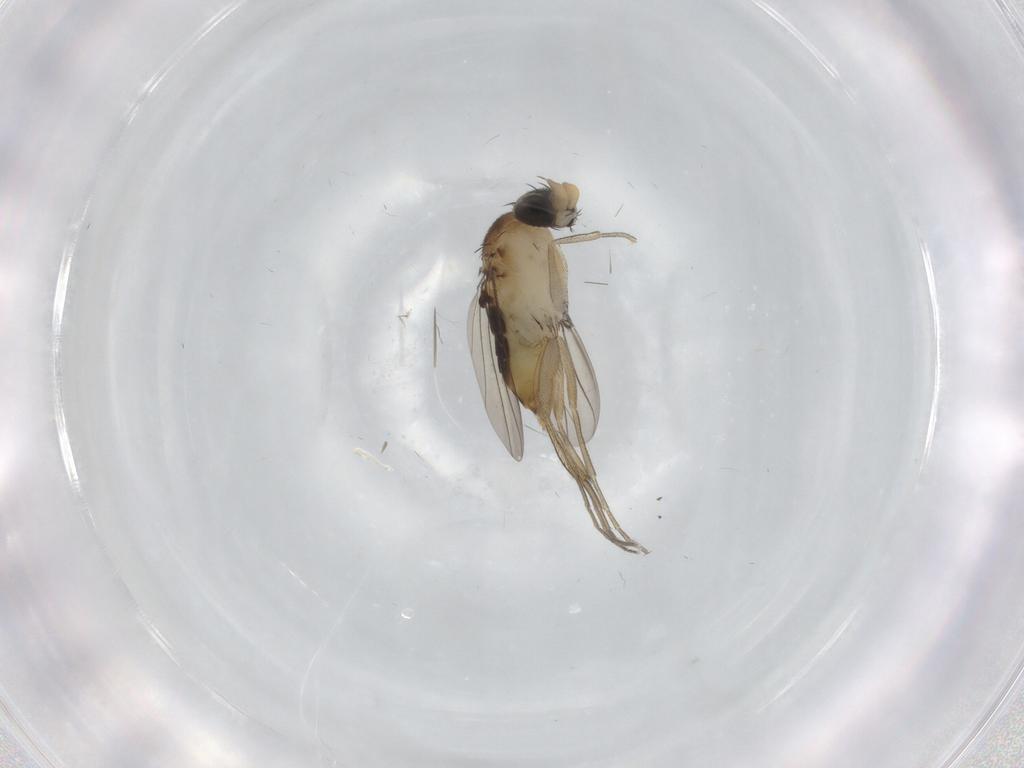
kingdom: Animalia
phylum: Arthropoda
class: Insecta
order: Diptera
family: Phoridae
